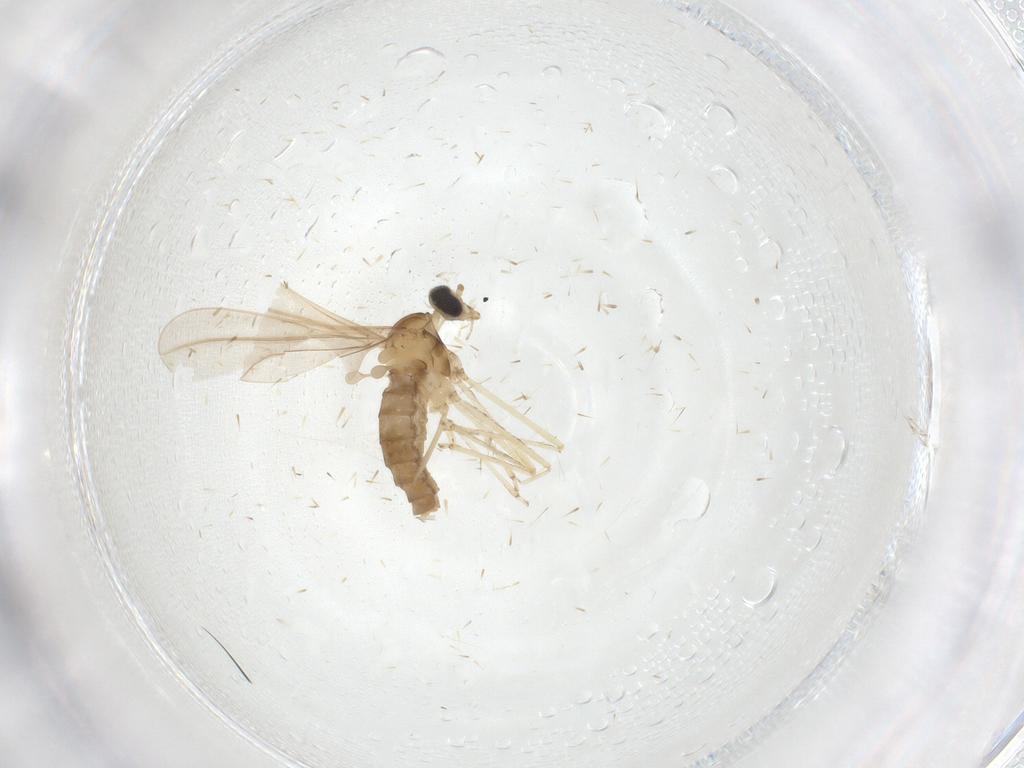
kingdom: Animalia
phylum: Arthropoda
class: Insecta
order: Diptera
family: Cecidomyiidae
